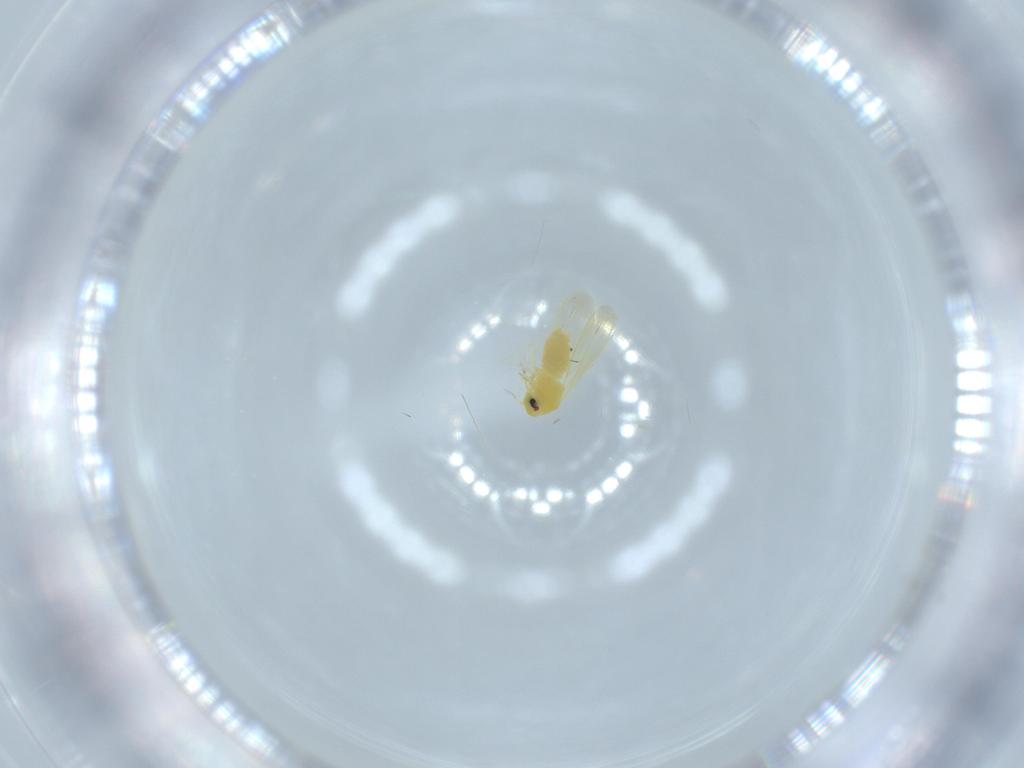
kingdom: Animalia
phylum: Arthropoda
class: Insecta
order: Hemiptera
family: Aleyrodidae
